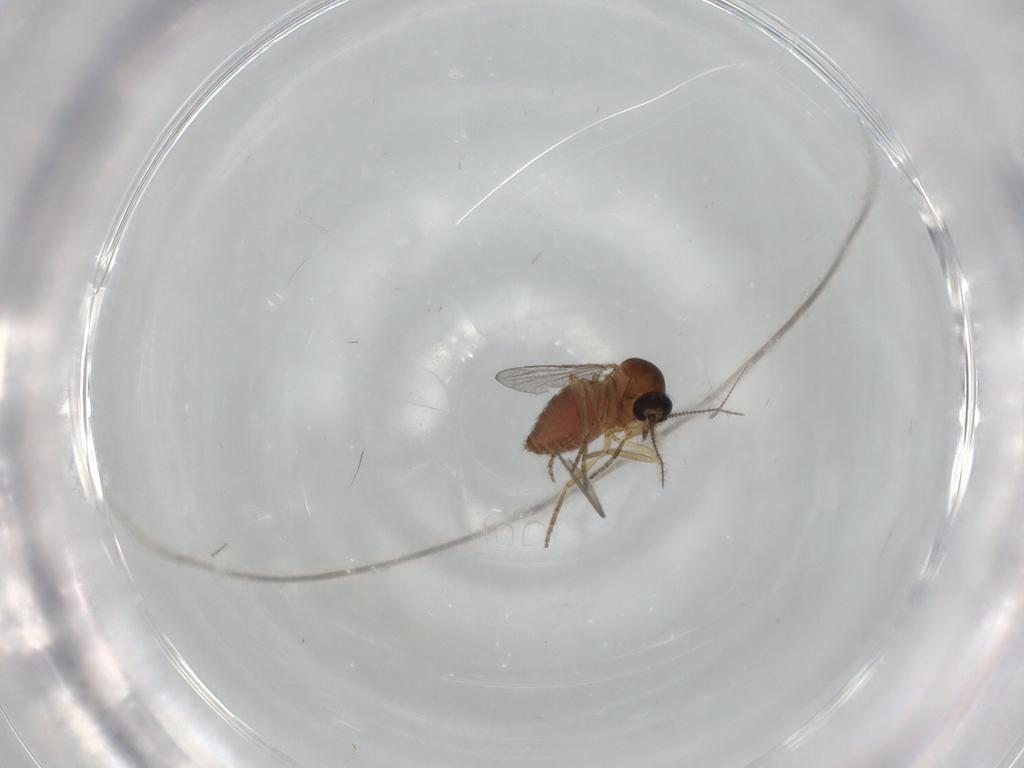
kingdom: Animalia
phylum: Arthropoda
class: Insecta
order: Diptera
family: Ceratopogonidae
